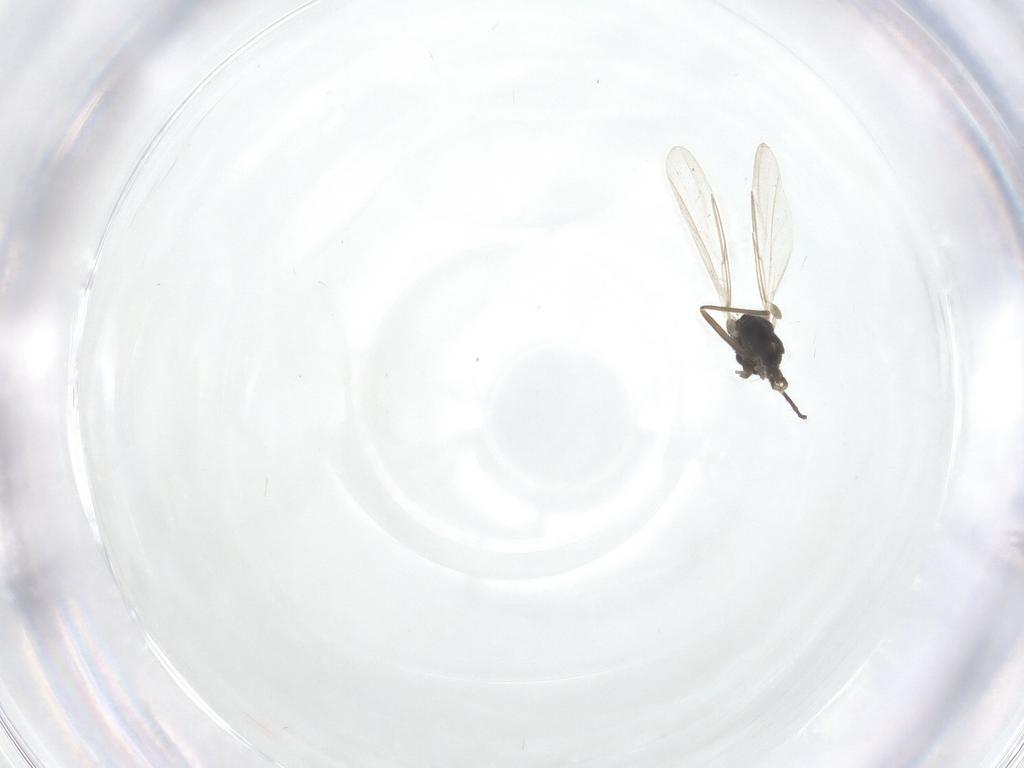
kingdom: Animalia
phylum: Arthropoda
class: Insecta
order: Diptera
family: Cecidomyiidae
